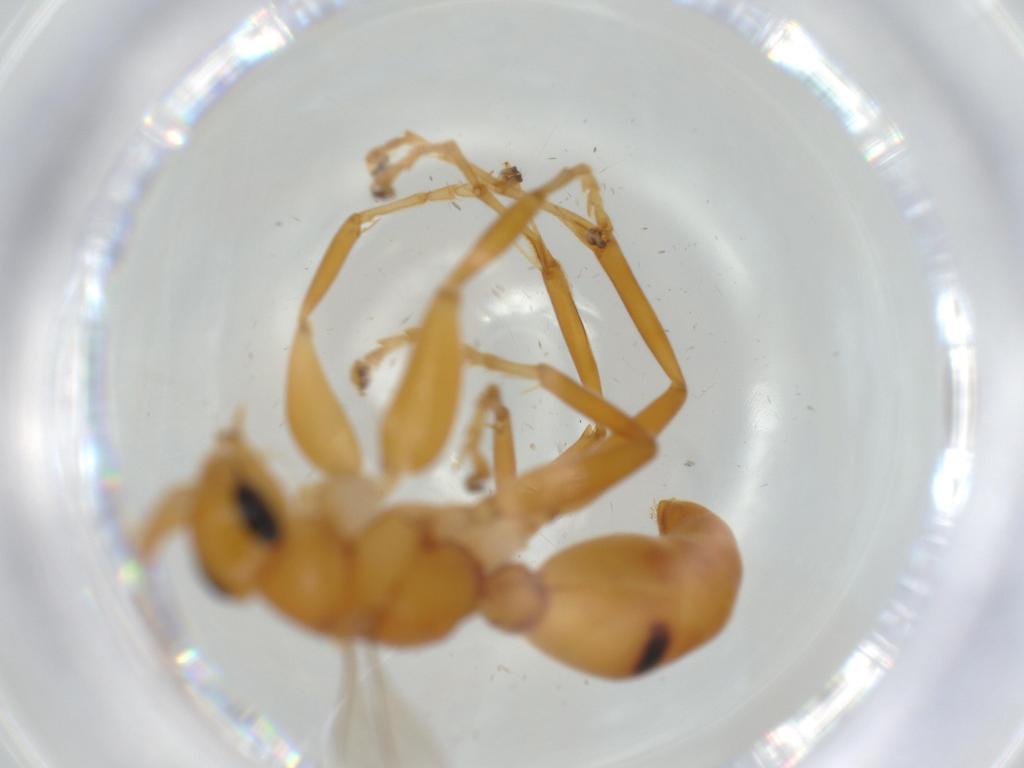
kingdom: Animalia
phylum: Arthropoda
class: Insecta
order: Hymenoptera
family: Rhopalosomatidae
